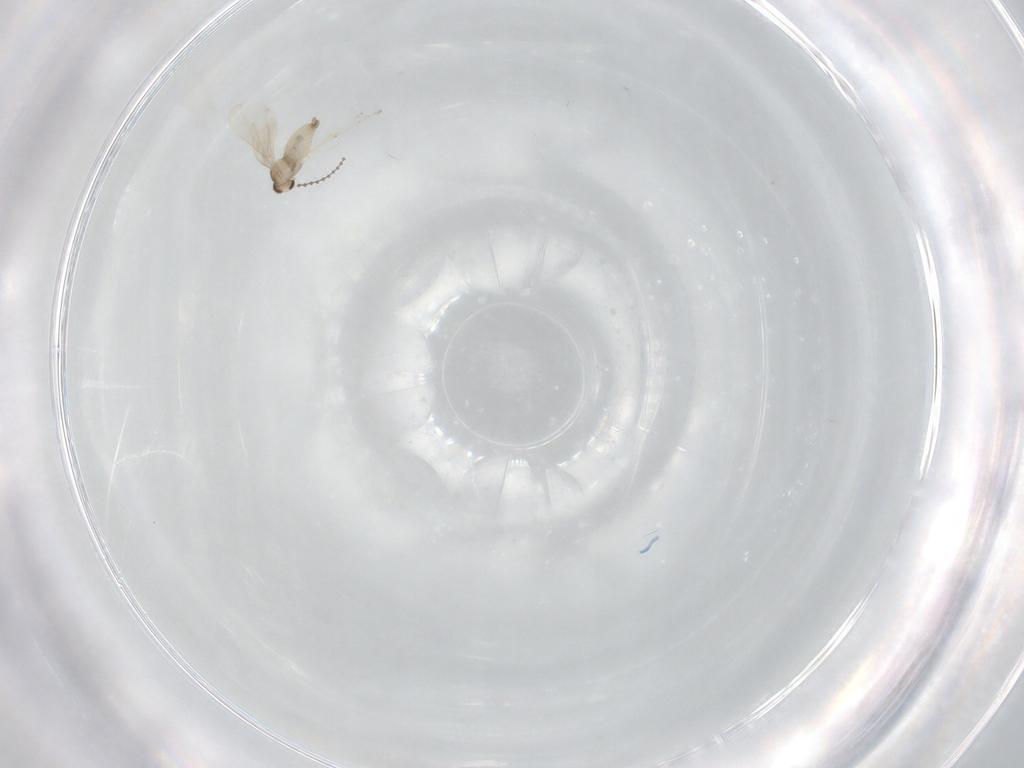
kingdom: Animalia
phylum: Arthropoda
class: Insecta
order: Diptera
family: Cecidomyiidae
